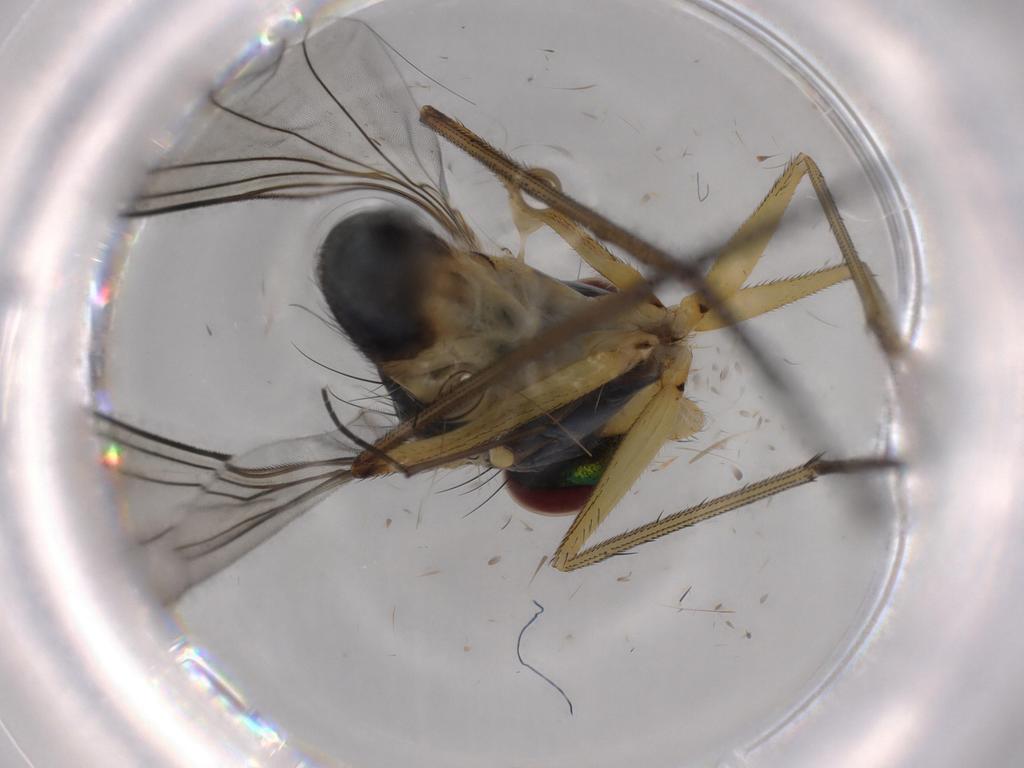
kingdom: Animalia
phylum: Arthropoda
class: Insecta
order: Diptera
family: Dolichopodidae
